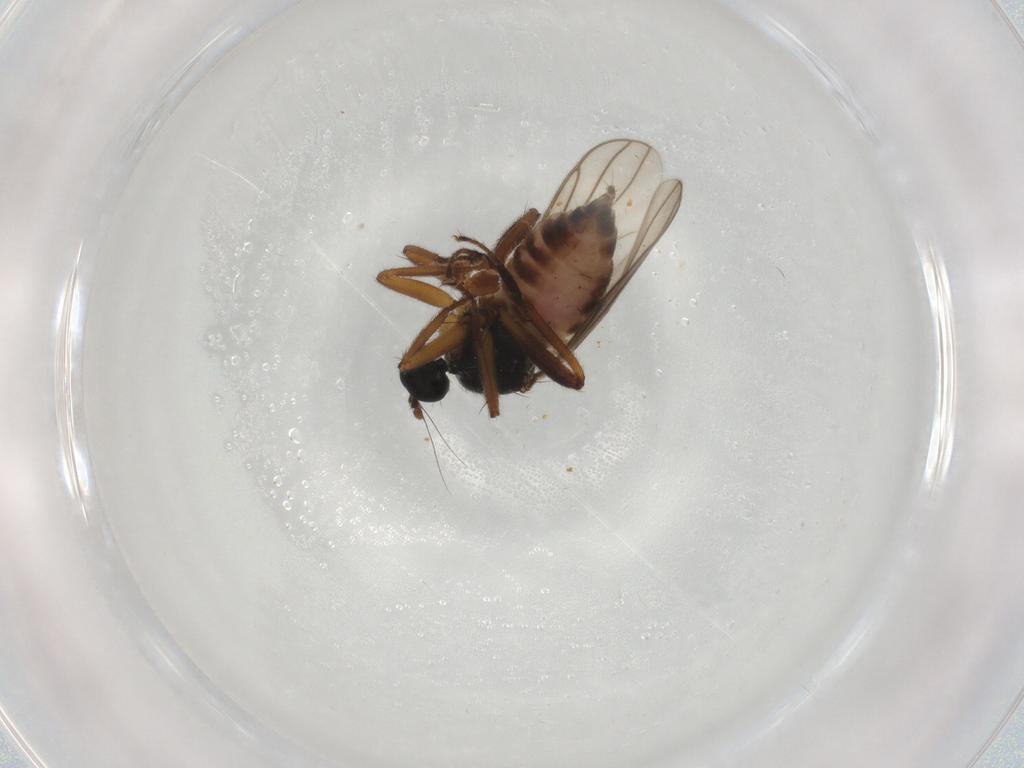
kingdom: Animalia
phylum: Arthropoda
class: Insecta
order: Diptera
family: Hybotidae
